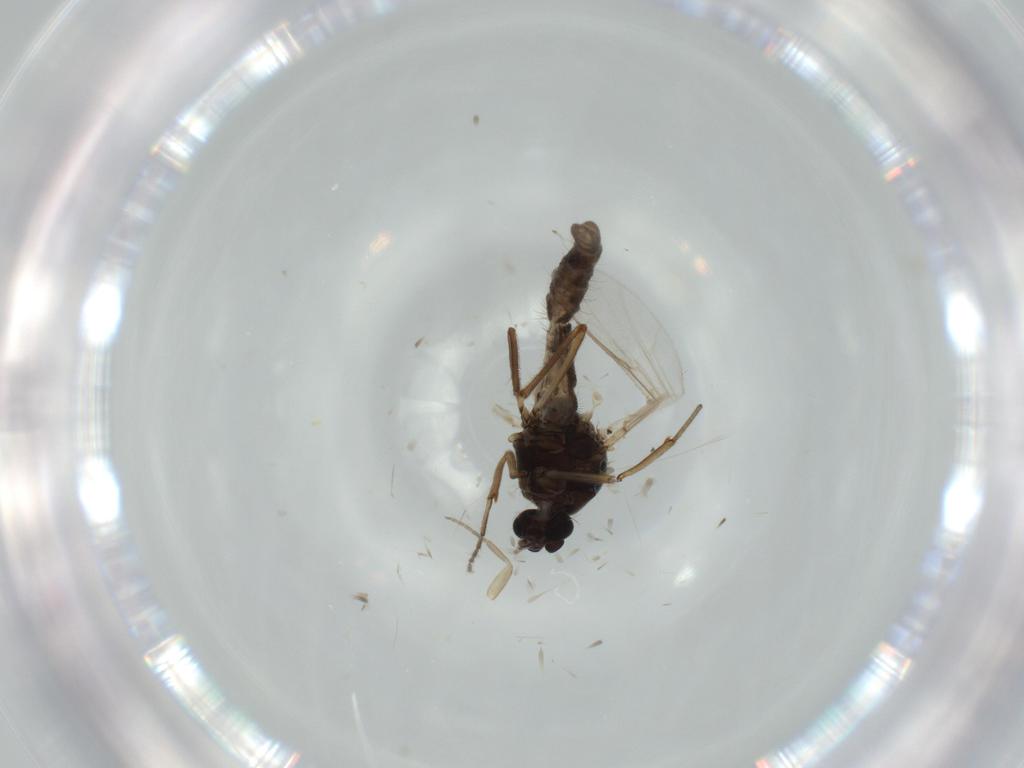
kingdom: Animalia
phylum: Arthropoda
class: Insecta
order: Diptera
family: Ceratopogonidae
